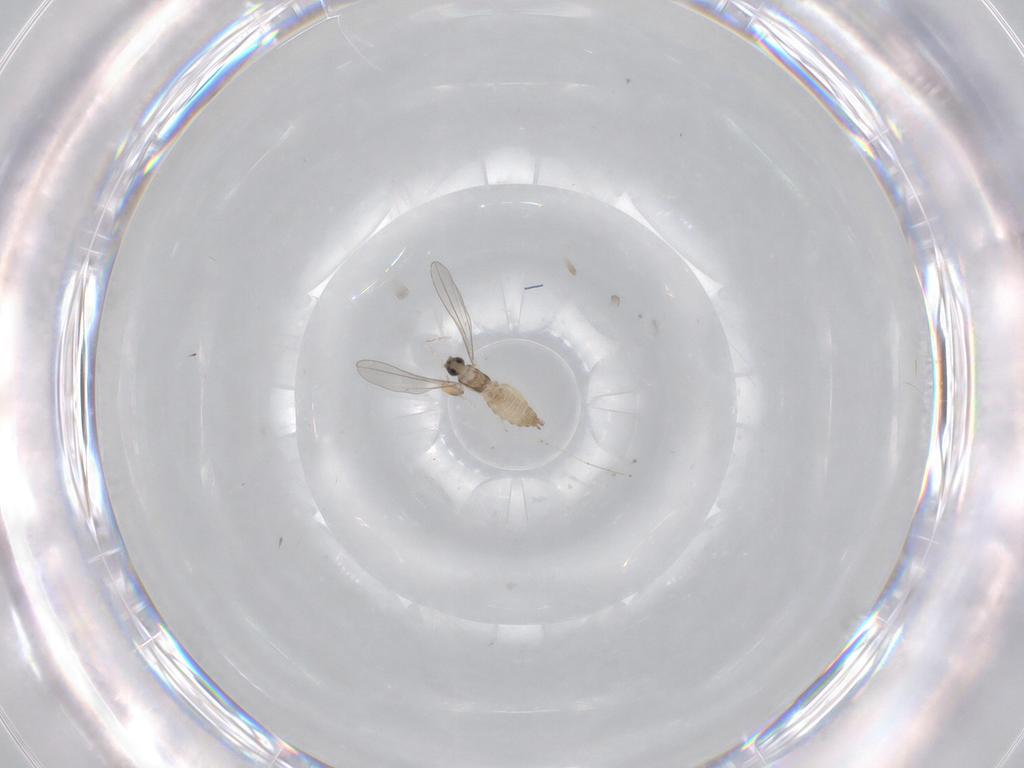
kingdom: Animalia
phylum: Arthropoda
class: Insecta
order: Diptera
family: Cecidomyiidae
